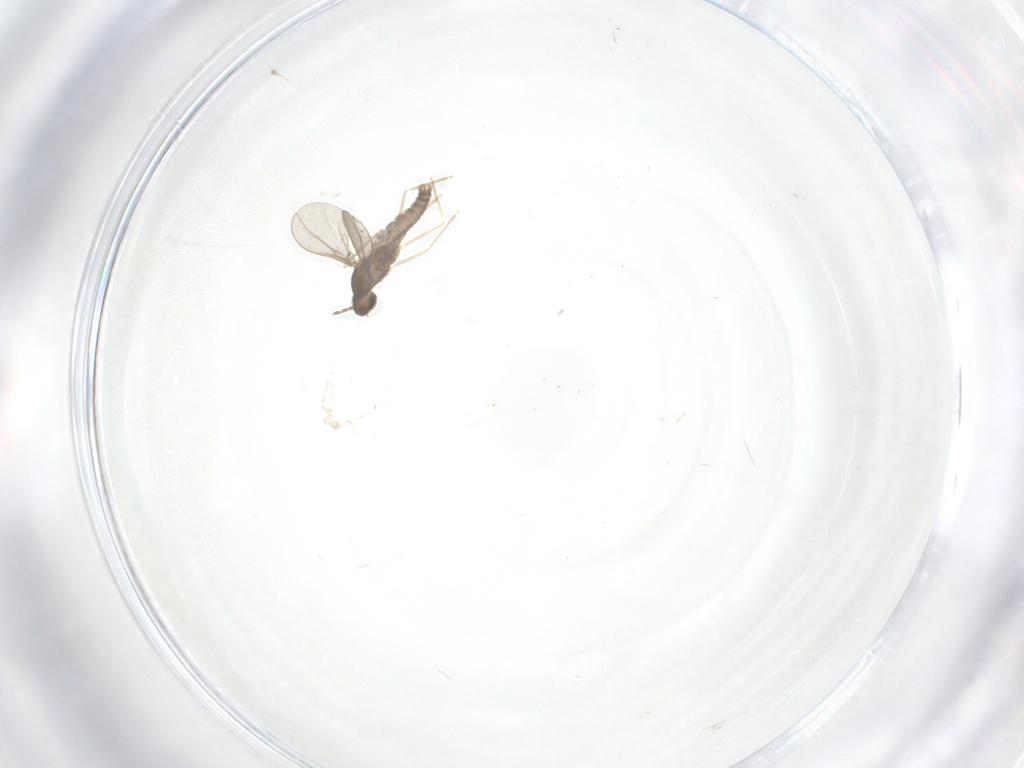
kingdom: Animalia
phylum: Arthropoda
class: Insecta
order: Diptera
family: Cecidomyiidae
